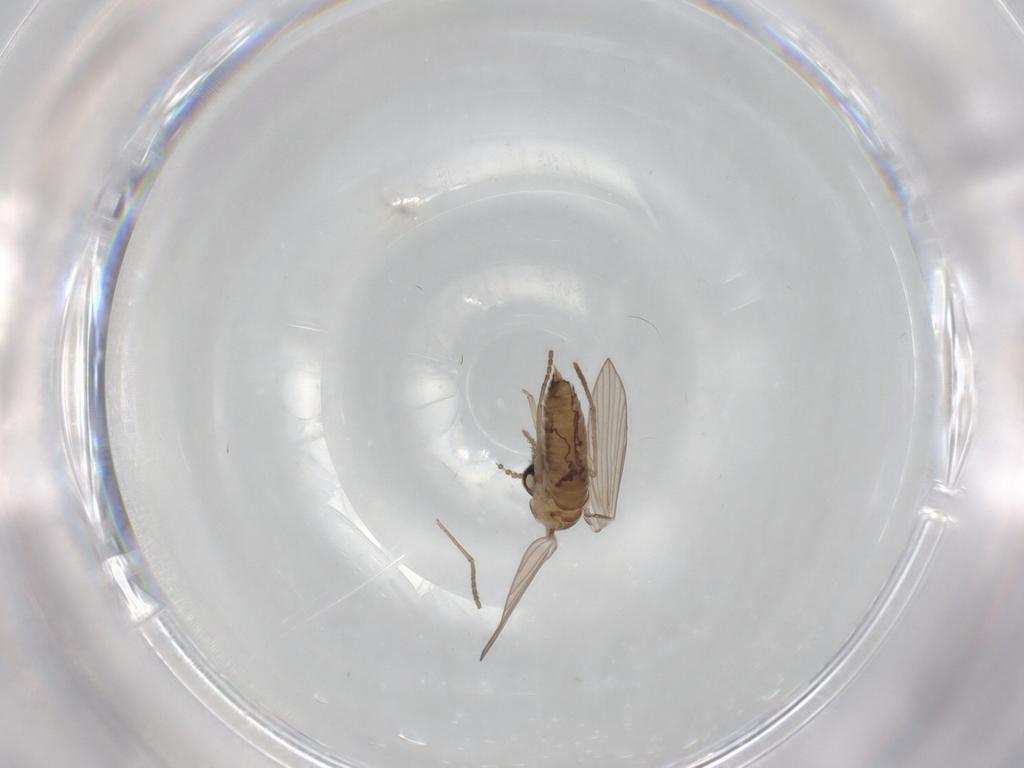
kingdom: Animalia
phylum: Arthropoda
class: Insecta
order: Diptera
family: Psychodidae
